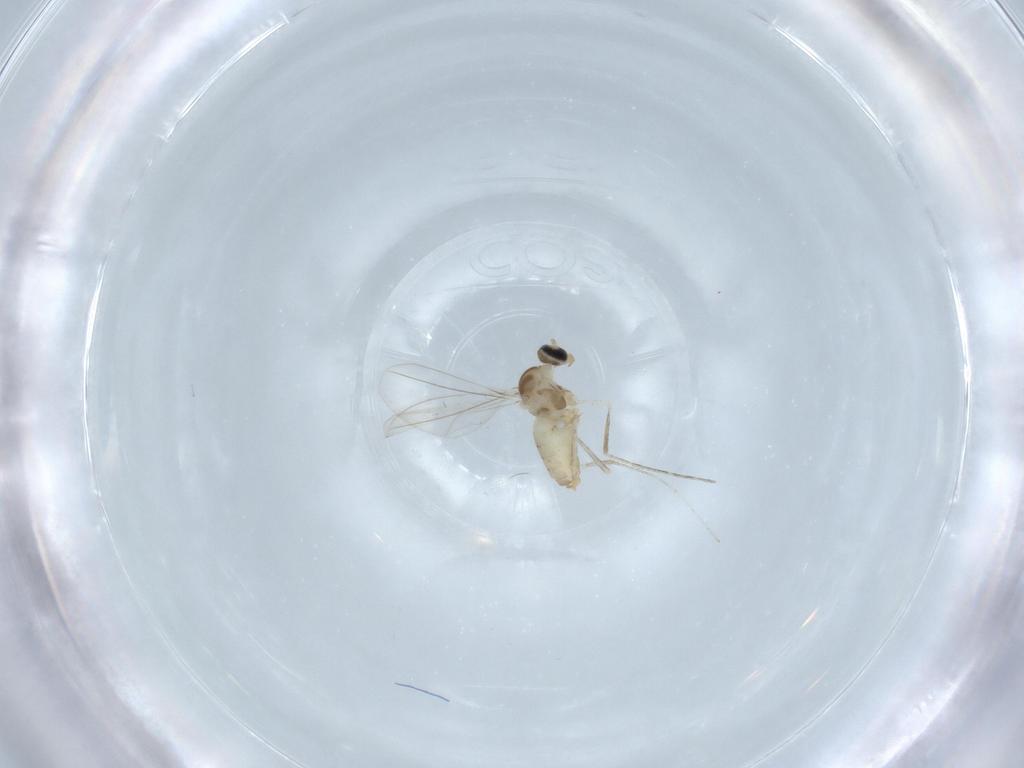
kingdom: Animalia
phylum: Arthropoda
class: Insecta
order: Diptera
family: Cecidomyiidae
